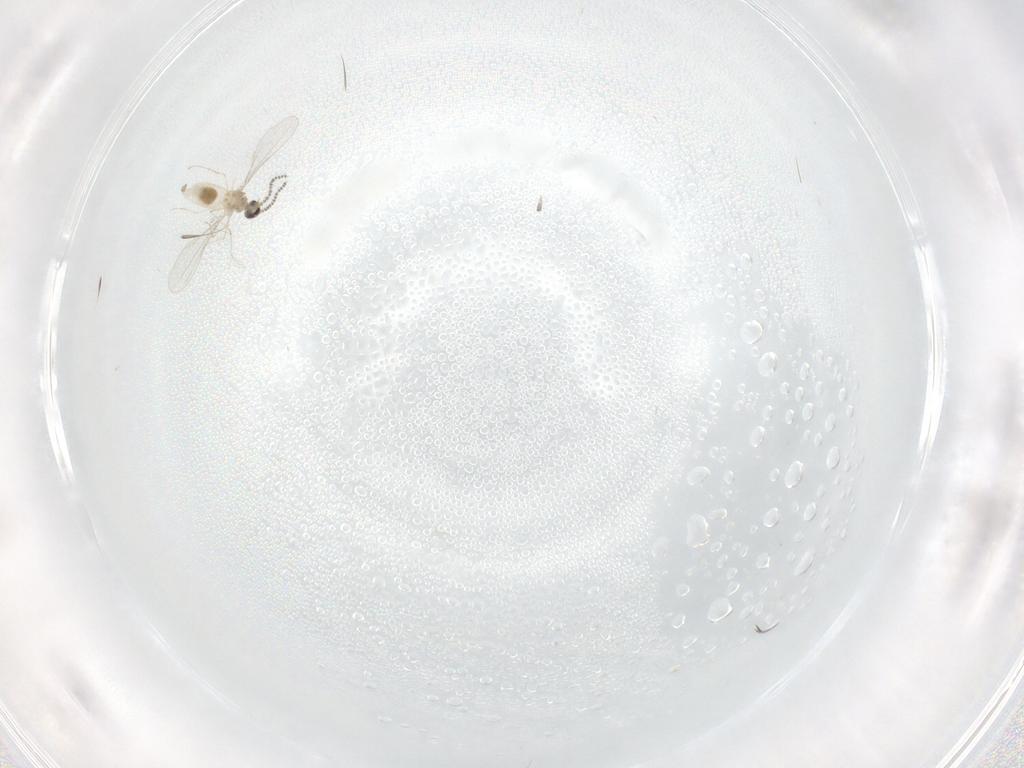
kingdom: Animalia
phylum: Arthropoda
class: Insecta
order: Diptera
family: Cecidomyiidae
